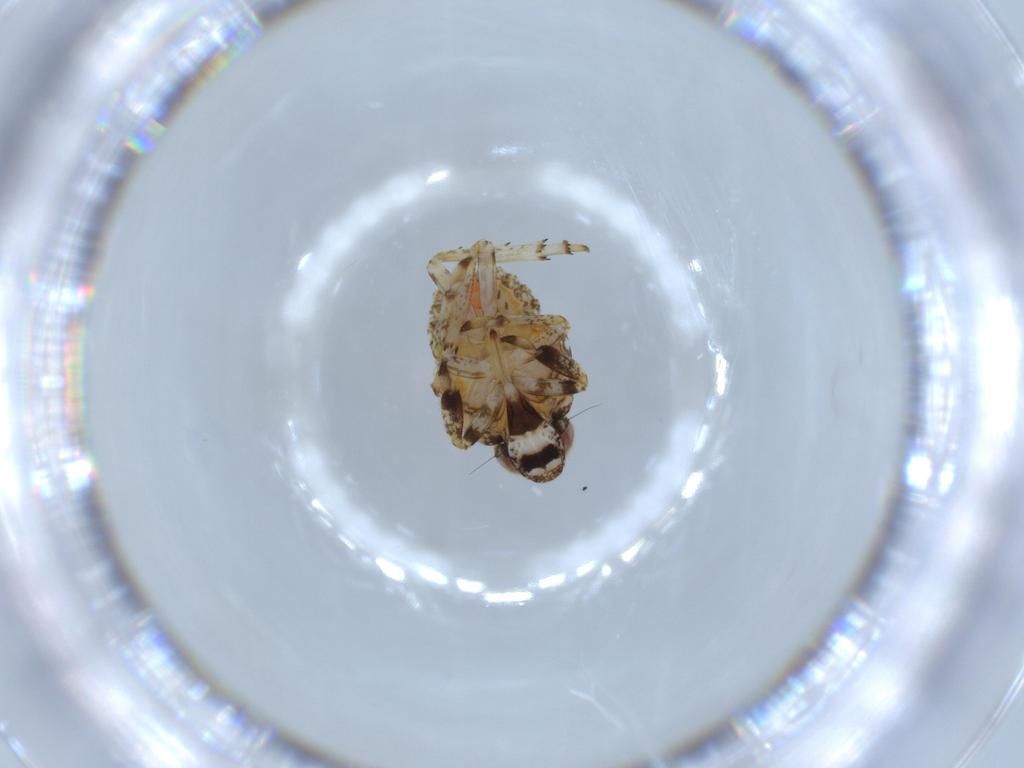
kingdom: Animalia
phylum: Arthropoda
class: Insecta
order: Hemiptera
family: Issidae
